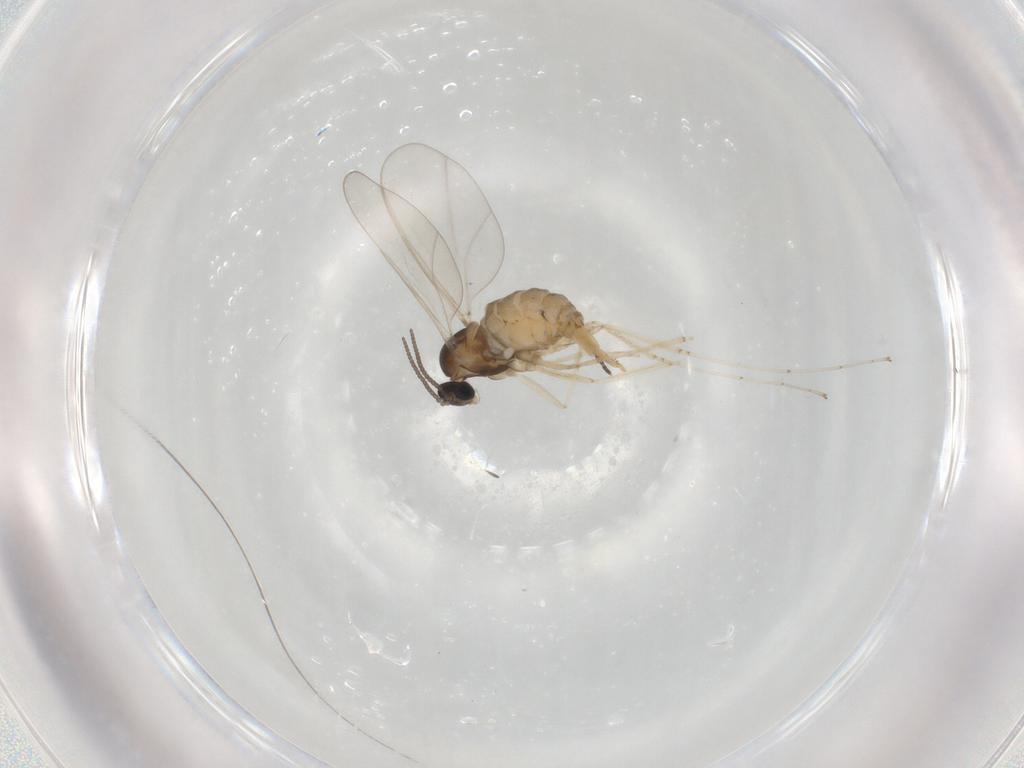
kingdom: Animalia
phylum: Arthropoda
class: Insecta
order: Diptera
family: Cecidomyiidae
